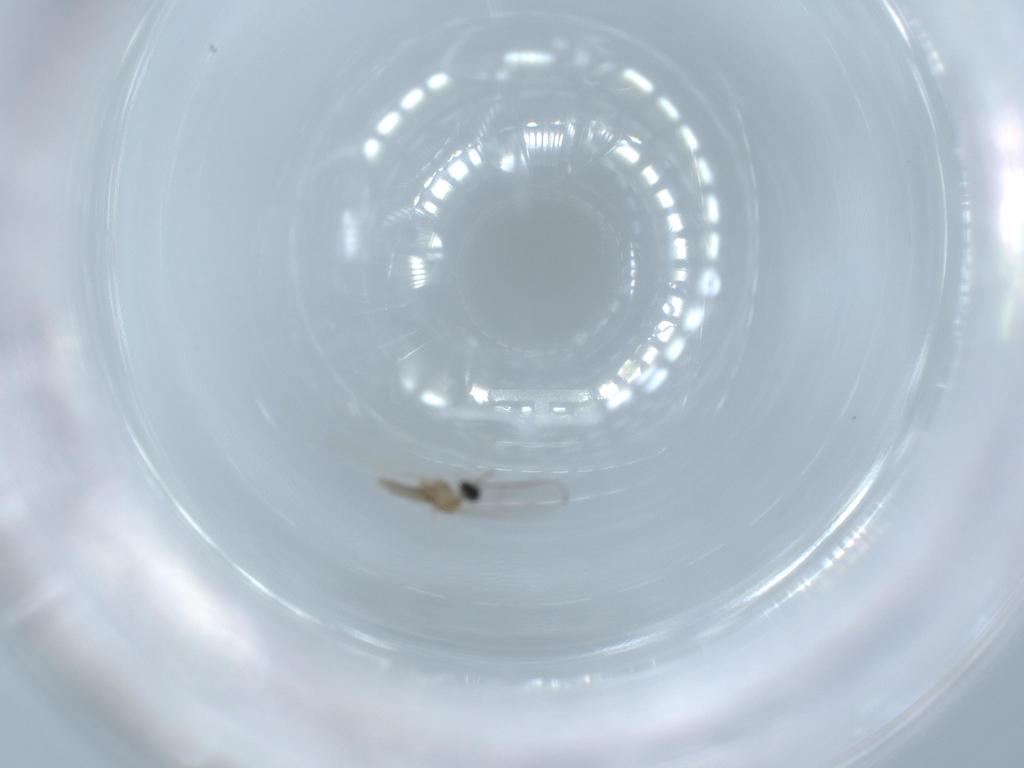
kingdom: Animalia
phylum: Arthropoda
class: Insecta
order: Diptera
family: Cecidomyiidae
